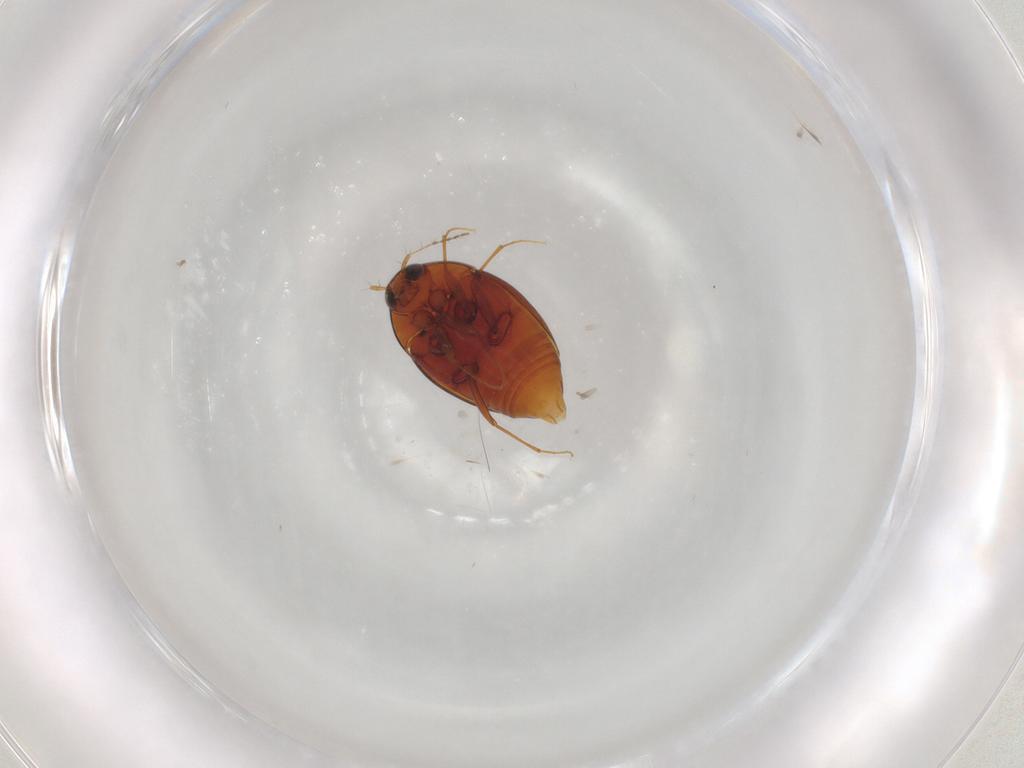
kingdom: Animalia
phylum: Arthropoda
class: Insecta
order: Coleoptera
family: Staphylinidae
